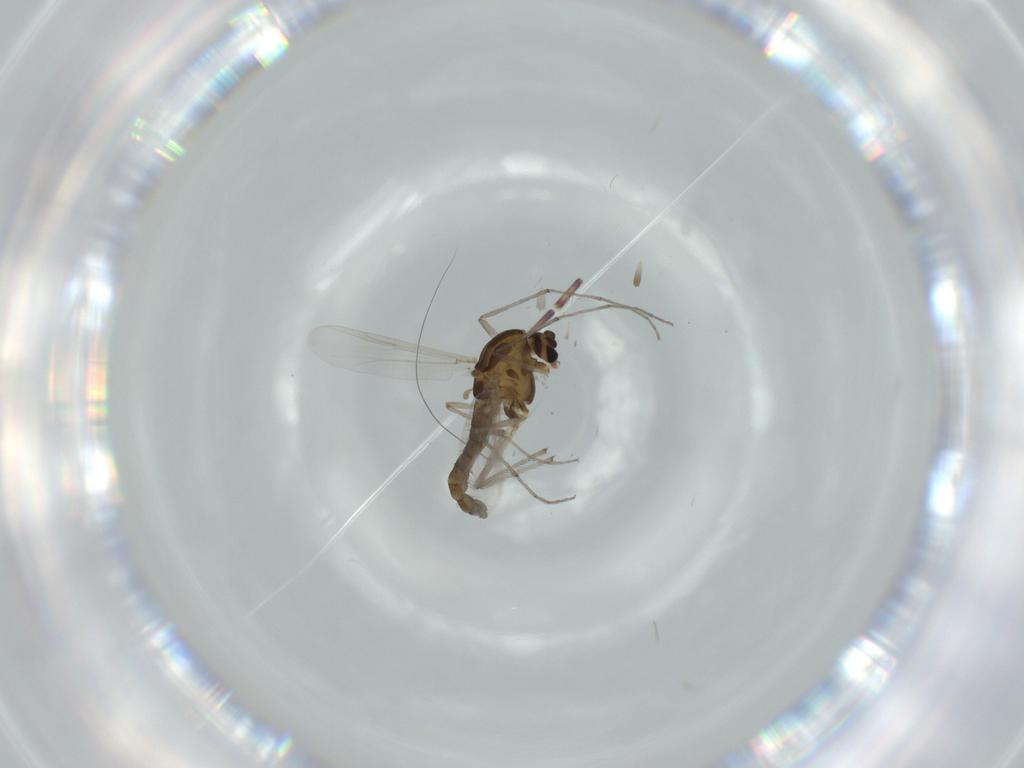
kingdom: Animalia
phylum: Arthropoda
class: Insecta
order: Diptera
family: Chironomidae
